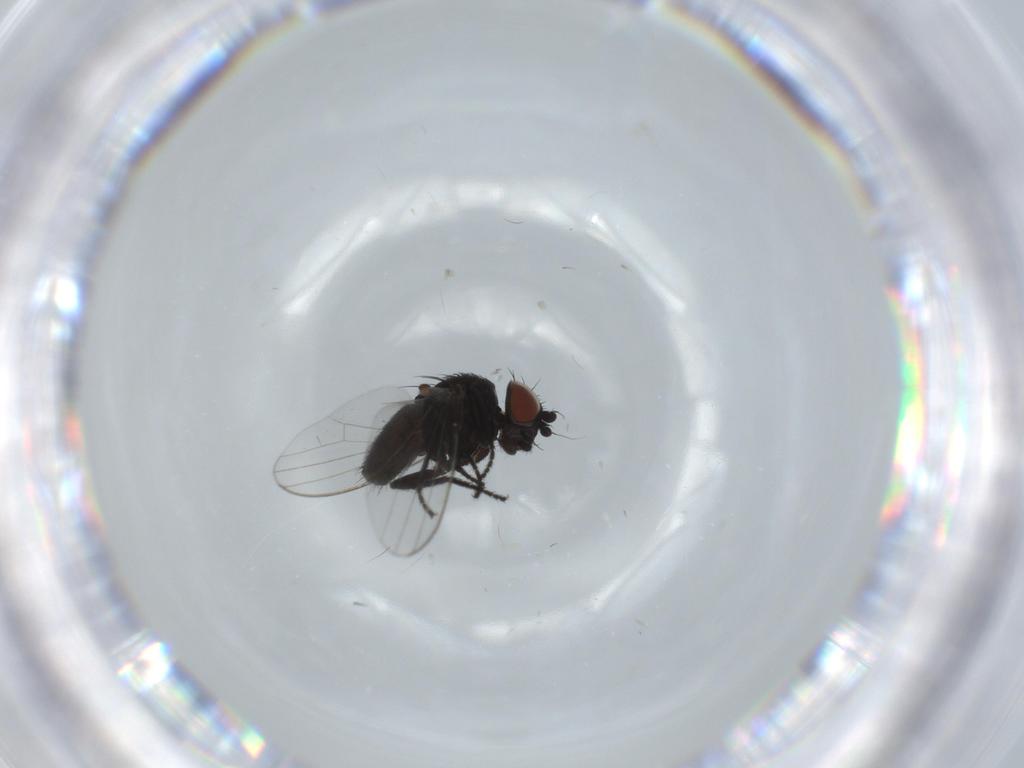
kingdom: Animalia
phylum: Arthropoda
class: Insecta
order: Diptera
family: Milichiidae
